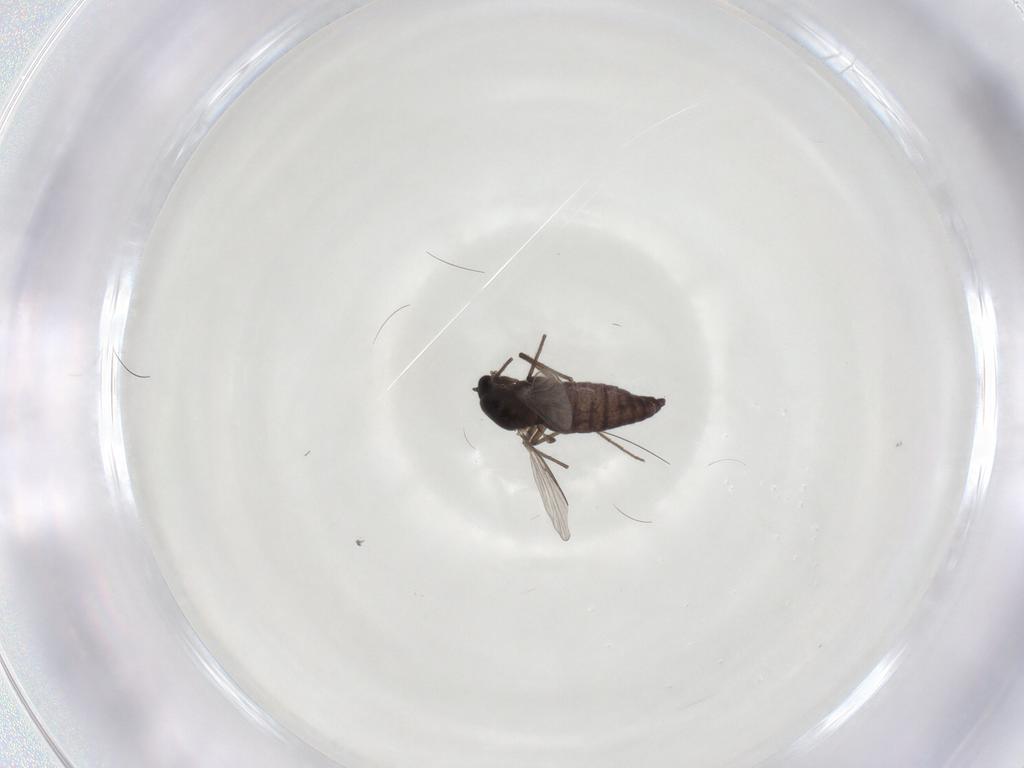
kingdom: Animalia
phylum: Arthropoda
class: Insecta
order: Diptera
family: Chironomidae
